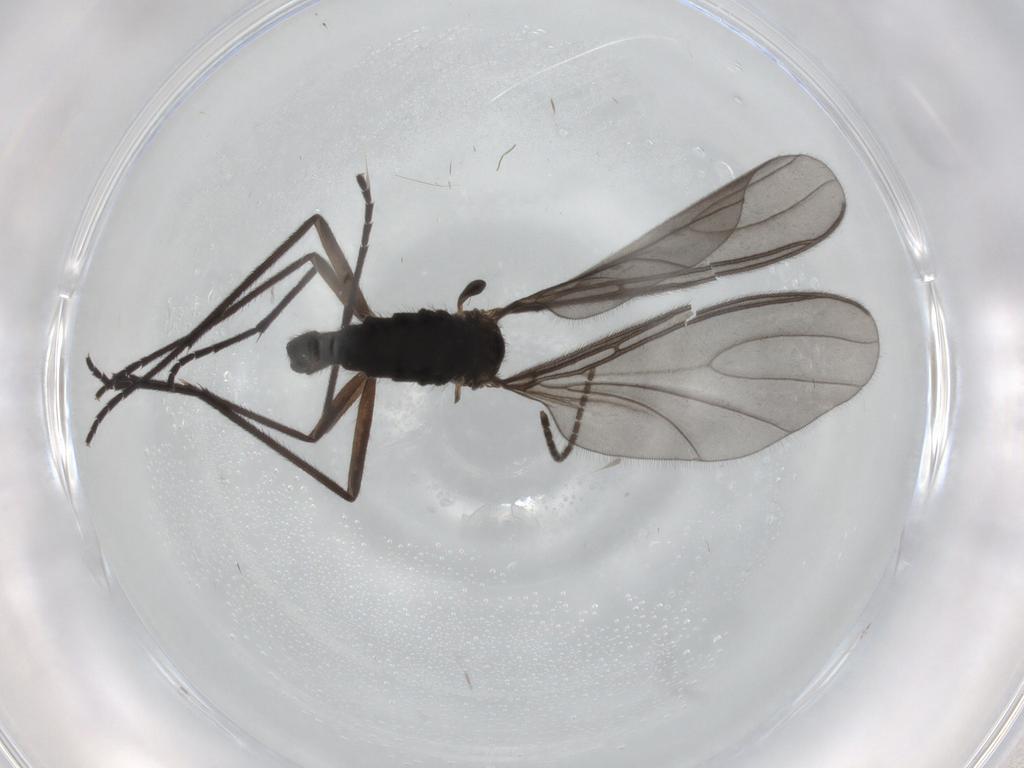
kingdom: Animalia
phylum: Arthropoda
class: Insecta
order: Diptera
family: Sciaridae
